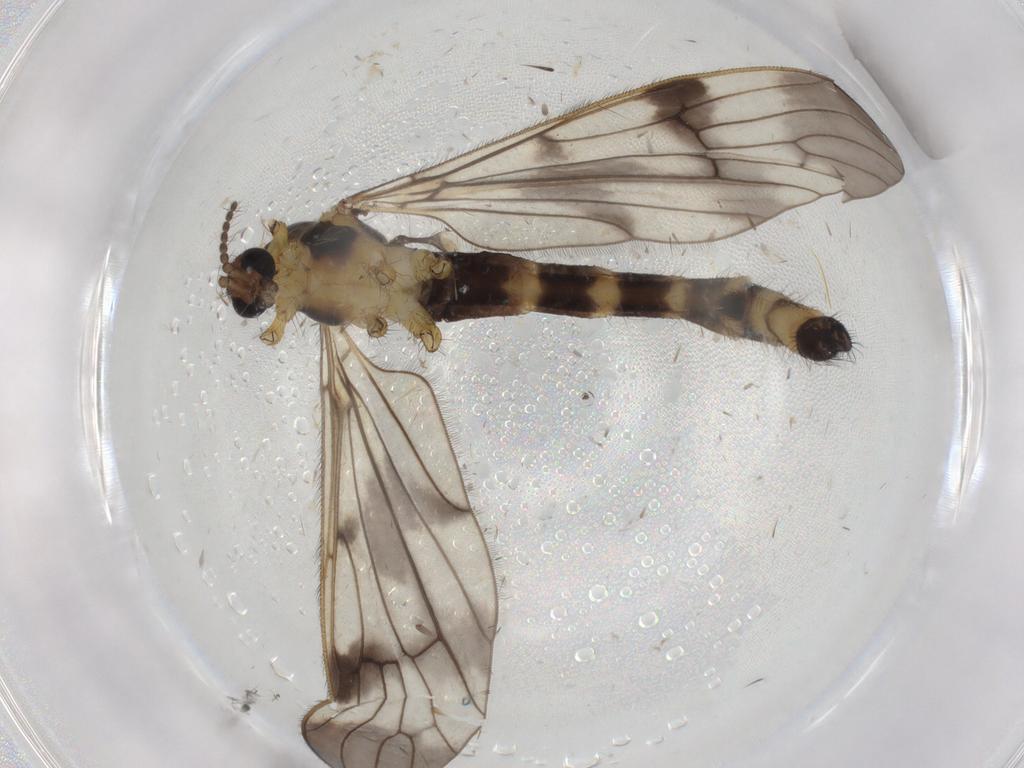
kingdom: Animalia
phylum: Arthropoda
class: Insecta
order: Diptera
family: Limoniidae
